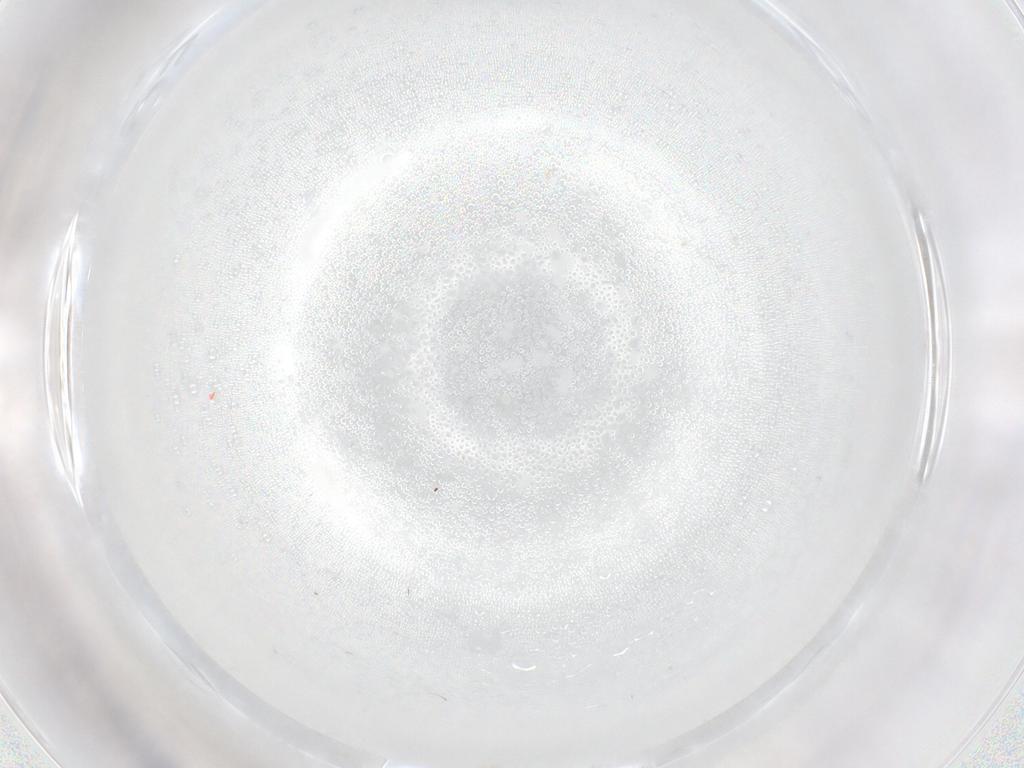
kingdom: Animalia
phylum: Arthropoda
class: Insecta
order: Hymenoptera
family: Mymaridae
